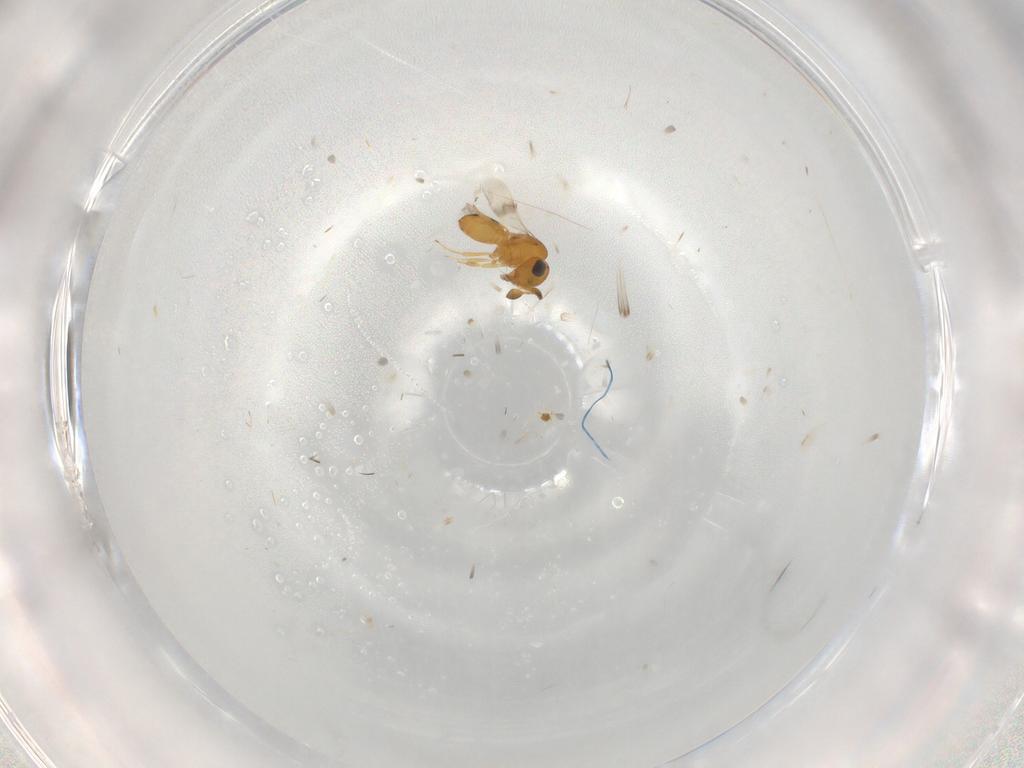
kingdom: Animalia
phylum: Arthropoda
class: Insecta
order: Hymenoptera
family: Scelionidae
